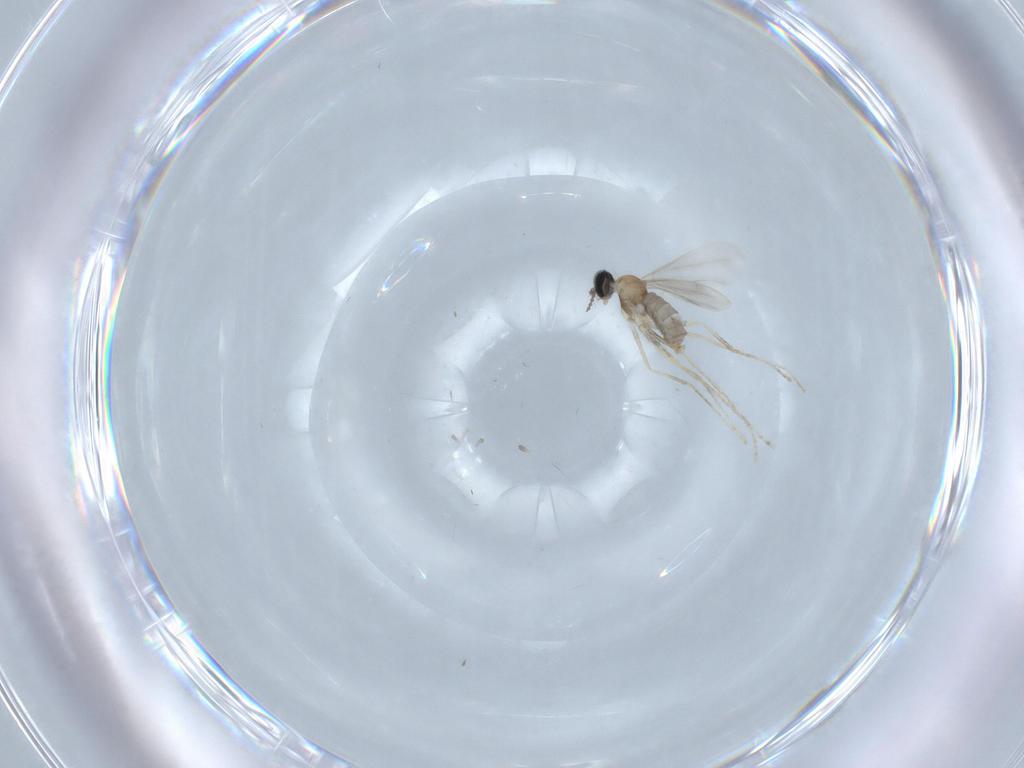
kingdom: Animalia
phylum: Arthropoda
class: Insecta
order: Diptera
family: Cecidomyiidae
